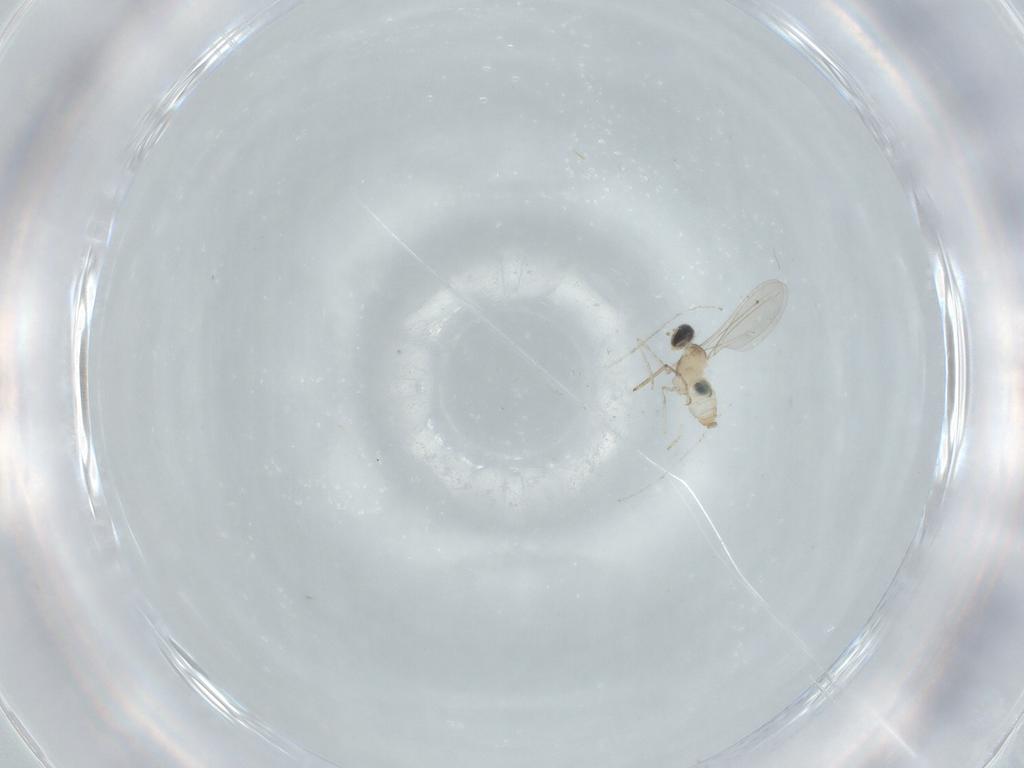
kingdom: Animalia
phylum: Arthropoda
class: Insecta
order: Diptera
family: Cecidomyiidae
